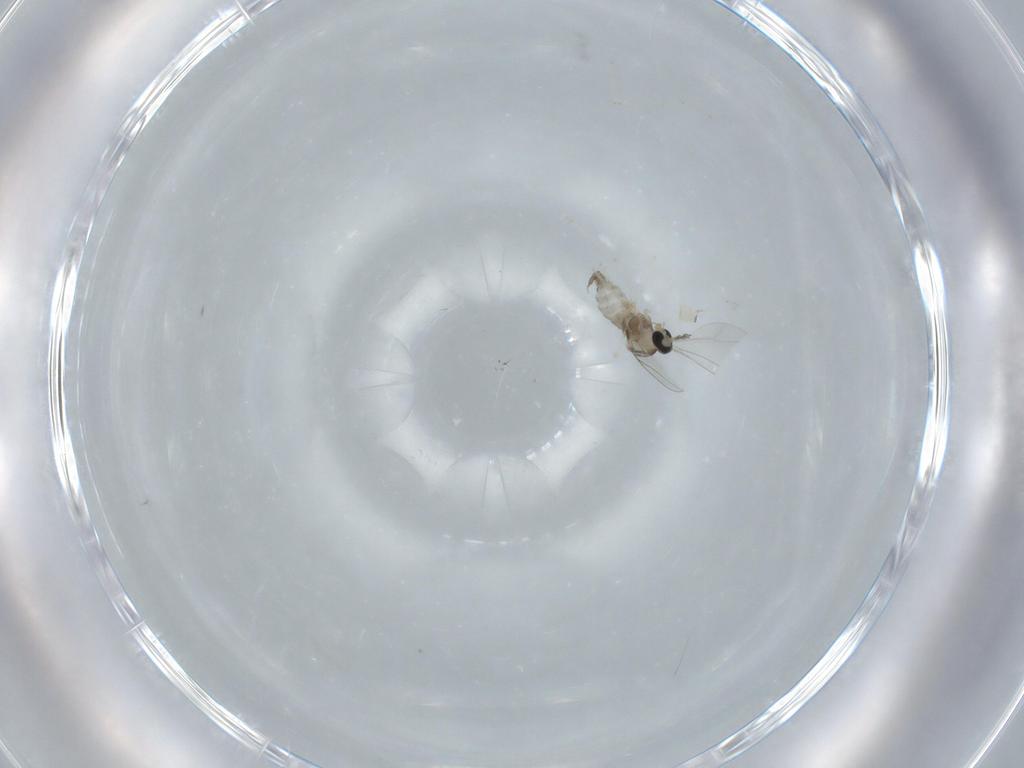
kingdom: Animalia
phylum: Arthropoda
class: Insecta
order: Diptera
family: Cecidomyiidae
